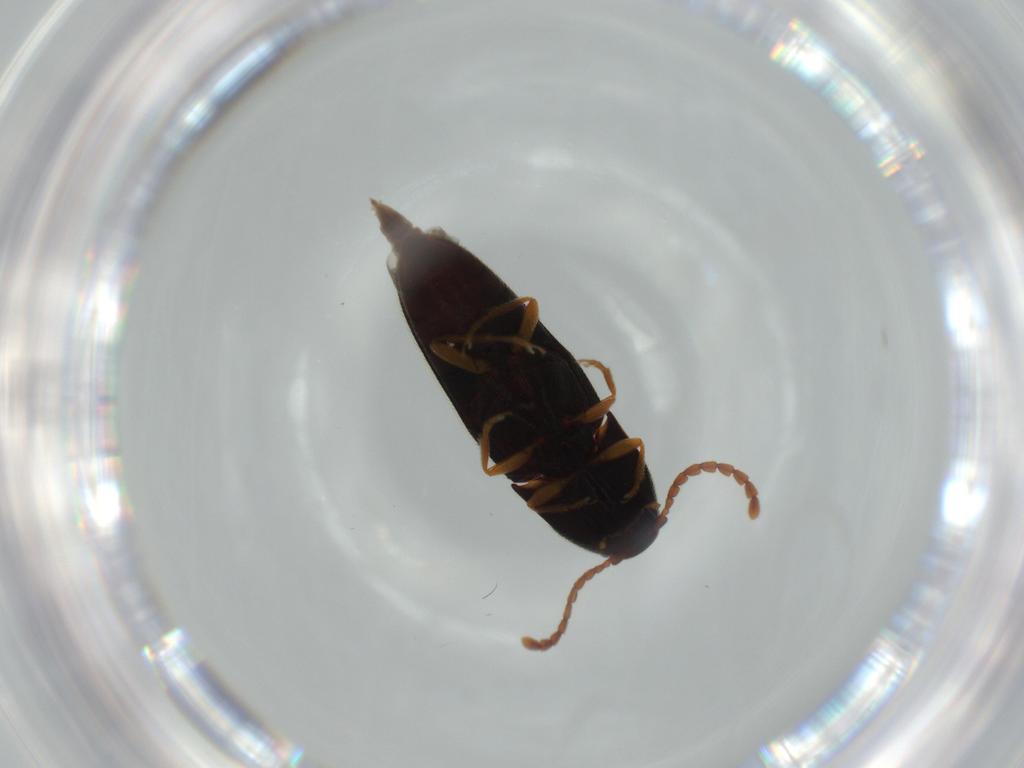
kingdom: Animalia
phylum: Arthropoda
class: Insecta
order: Coleoptera
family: Elateridae
